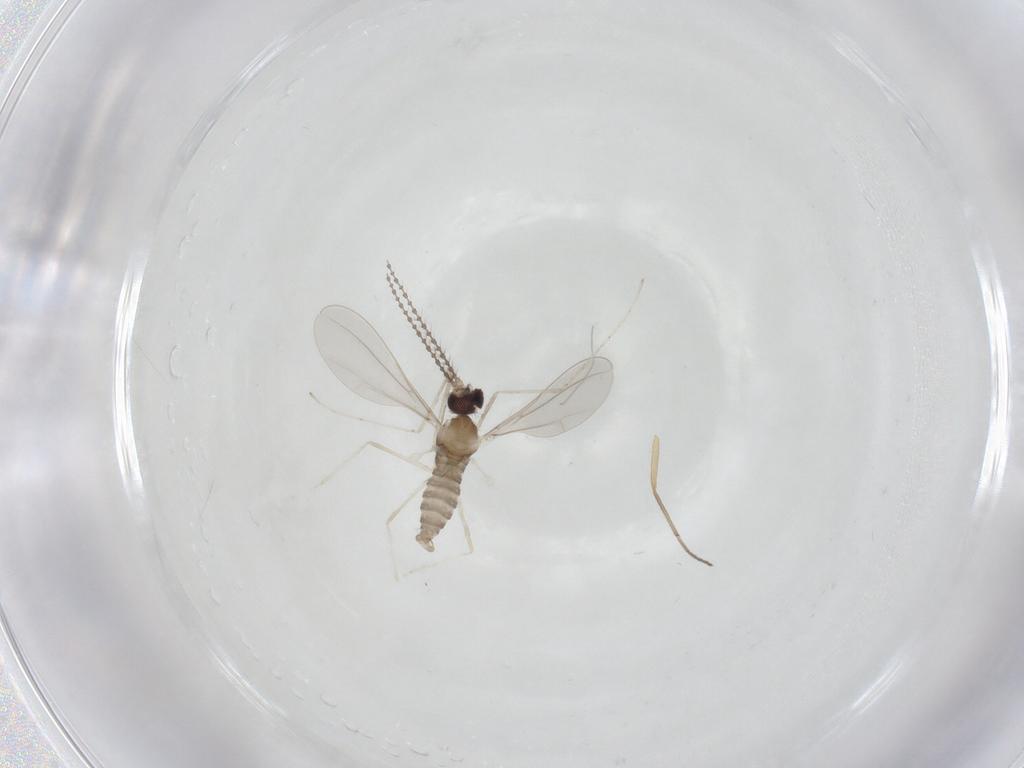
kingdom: Animalia
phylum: Arthropoda
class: Insecta
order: Diptera
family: Cecidomyiidae
